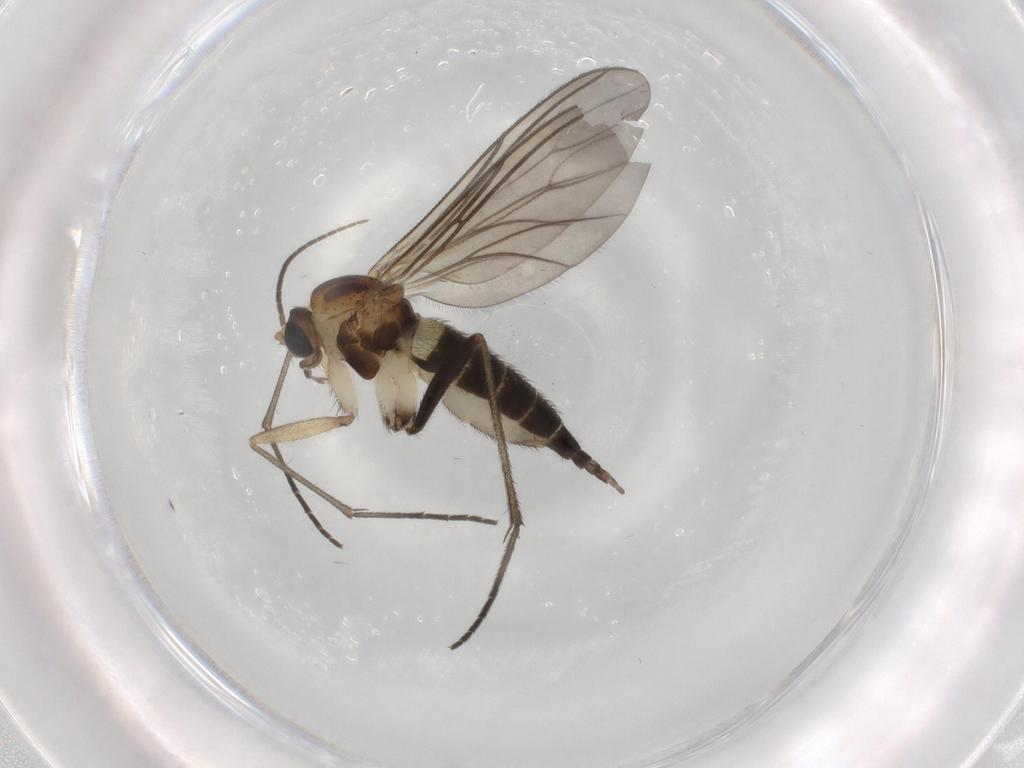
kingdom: Animalia
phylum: Arthropoda
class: Insecta
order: Diptera
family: Sciaridae
